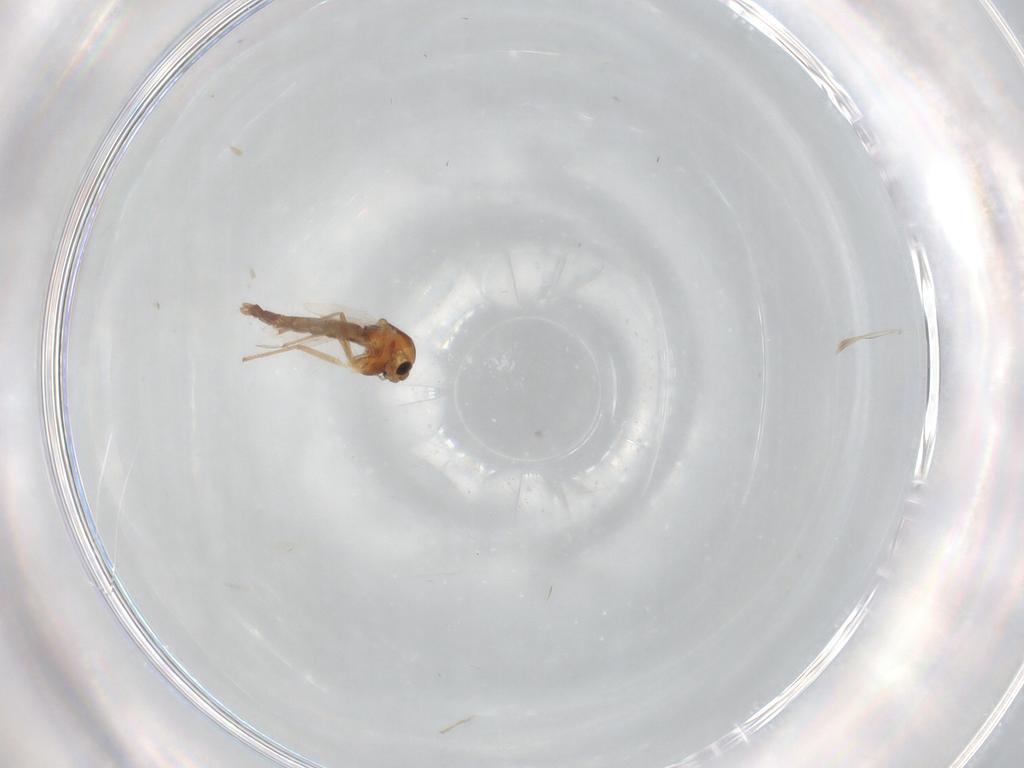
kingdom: Animalia
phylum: Arthropoda
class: Insecta
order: Diptera
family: Chironomidae
